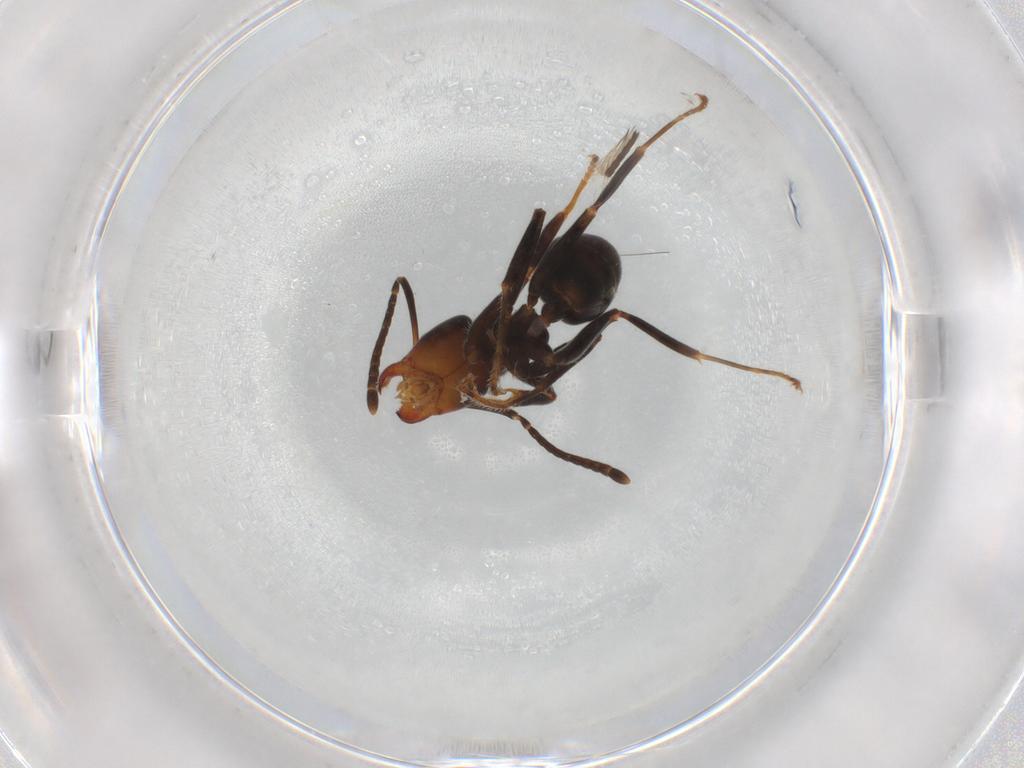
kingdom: Animalia
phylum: Arthropoda
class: Insecta
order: Hymenoptera
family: Formicidae
